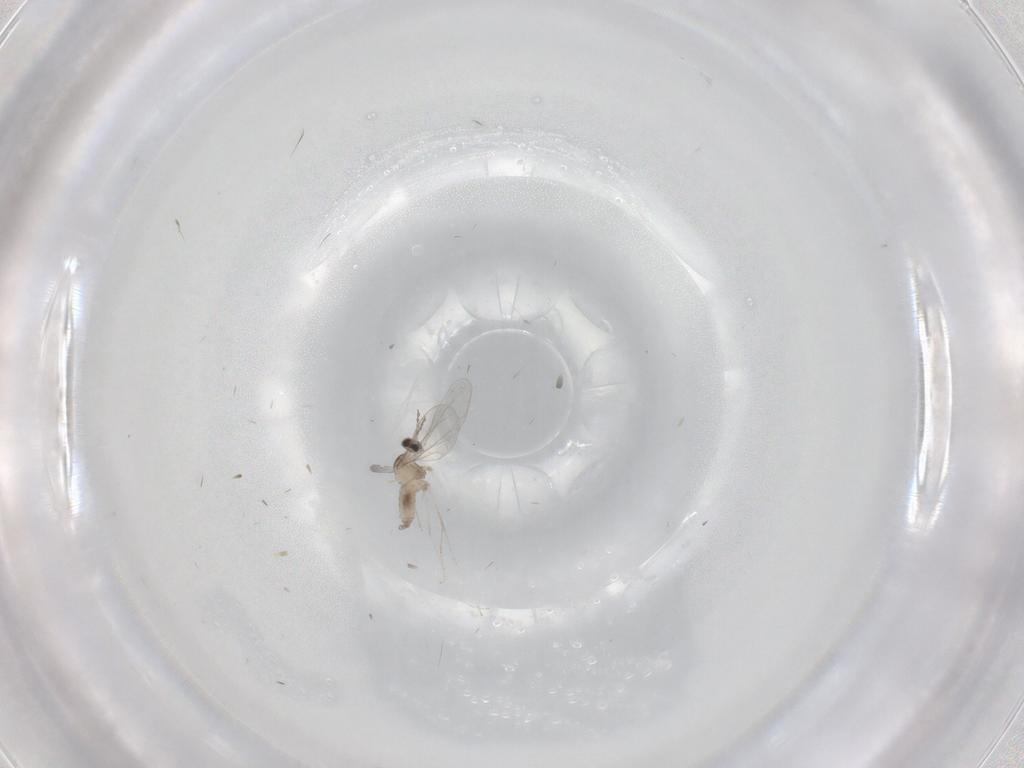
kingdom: Animalia
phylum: Arthropoda
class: Insecta
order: Diptera
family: Cecidomyiidae
